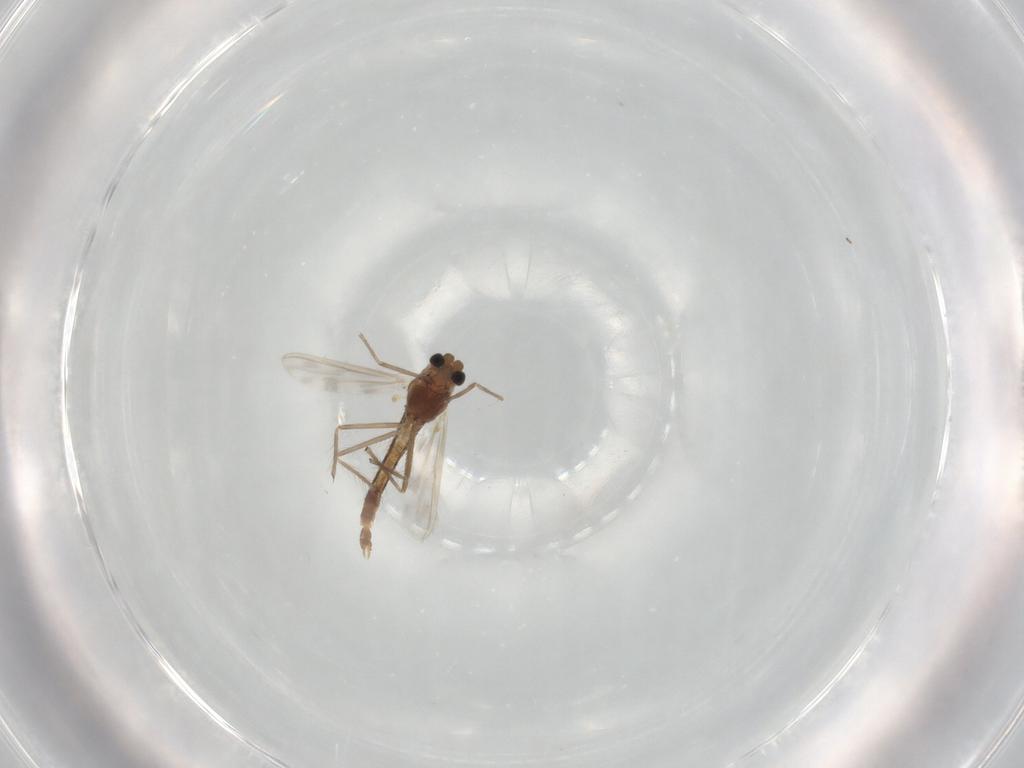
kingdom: Animalia
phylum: Arthropoda
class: Insecta
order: Diptera
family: Chironomidae
